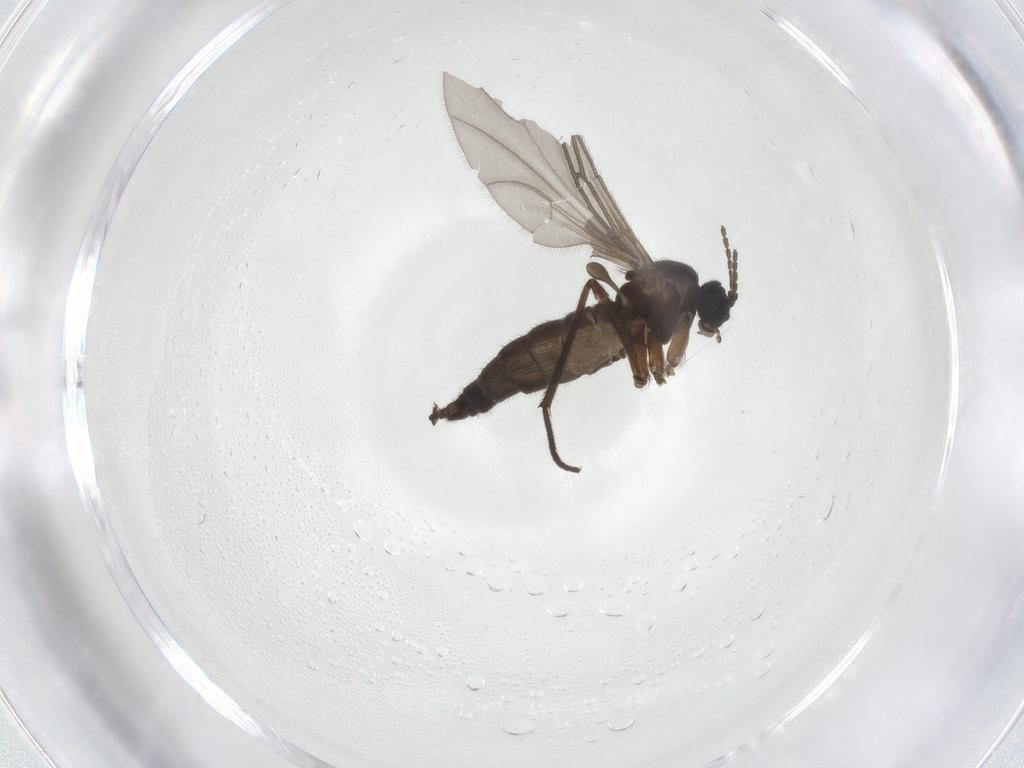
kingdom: Animalia
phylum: Arthropoda
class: Insecta
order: Diptera
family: Sciaridae
